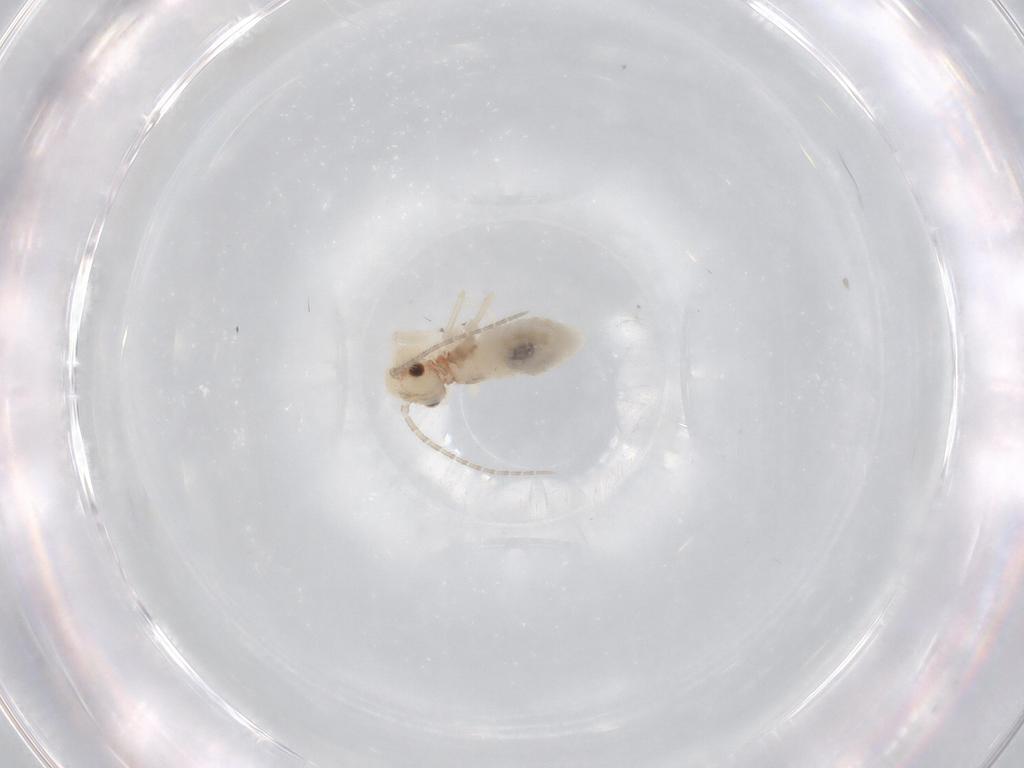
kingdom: Animalia
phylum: Arthropoda
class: Insecta
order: Psocodea
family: Amphipsocidae
